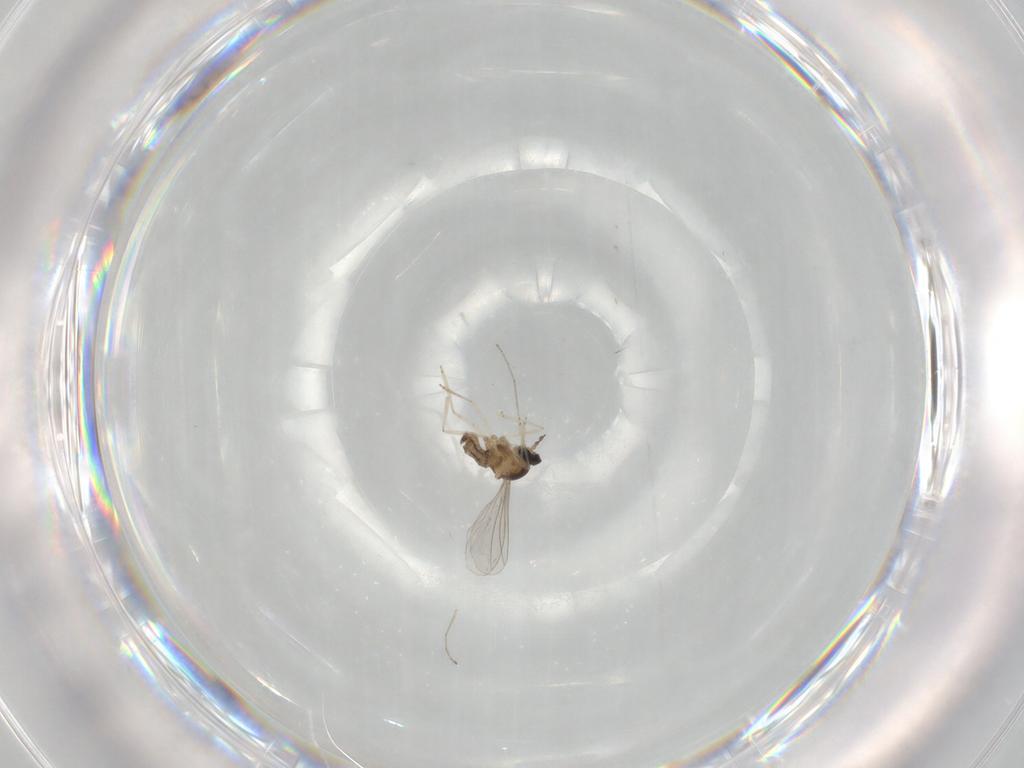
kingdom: Animalia
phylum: Arthropoda
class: Insecta
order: Diptera
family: Cecidomyiidae
